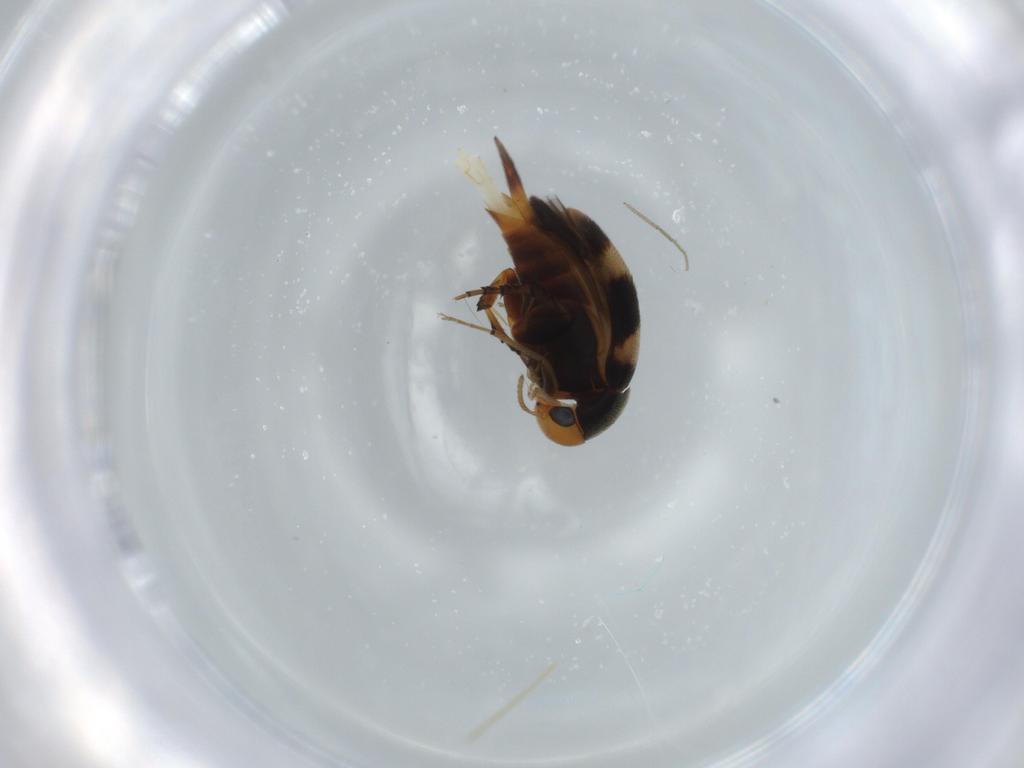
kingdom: Animalia
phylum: Arthropoda
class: Insecta
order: Coleoptera
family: Mordellidae
